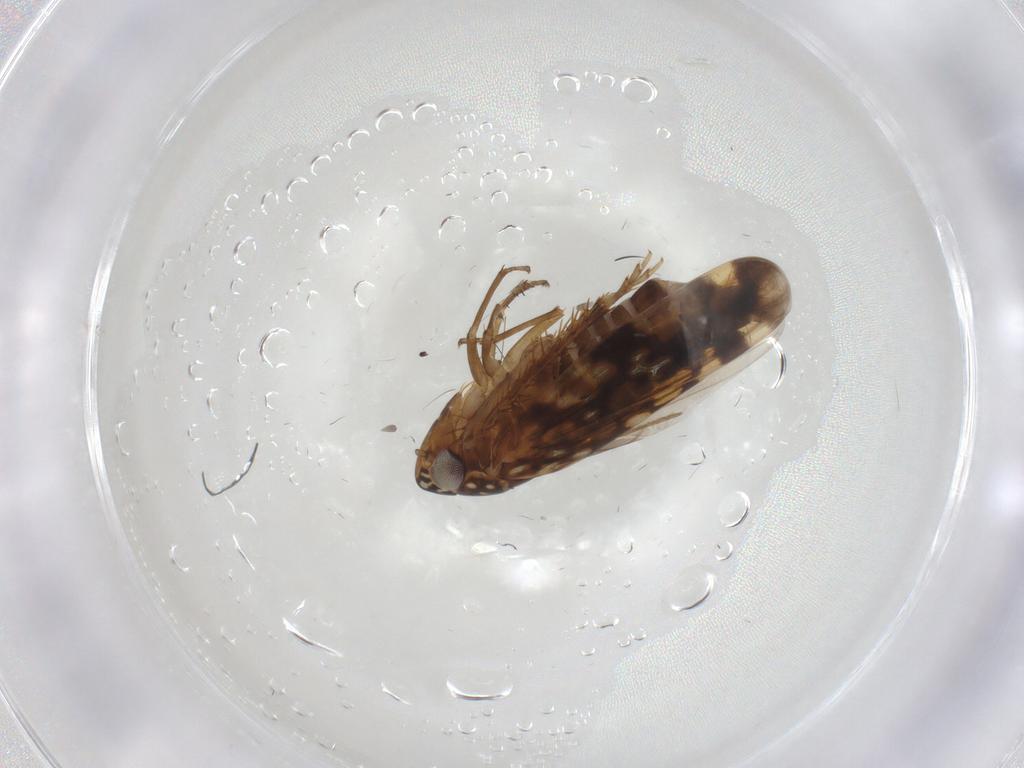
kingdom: Animalia
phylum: Arthropoda
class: Insecta
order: Hemiptera
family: Cicadellidae
